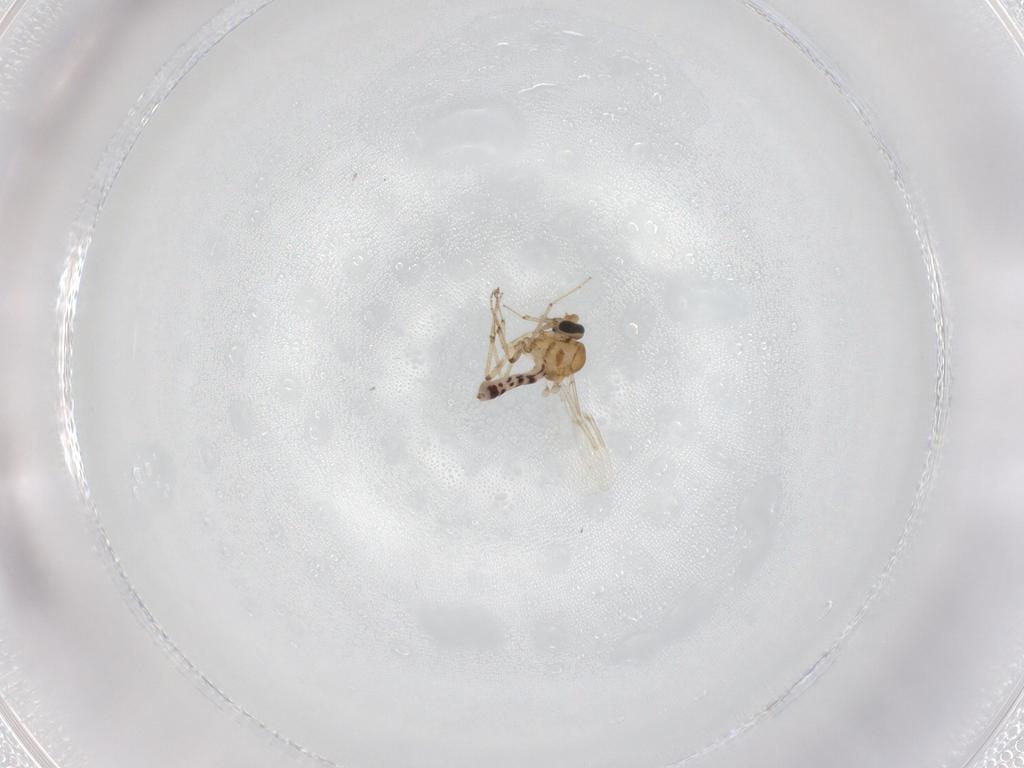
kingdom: Animalia
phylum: Arthropoda
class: Insecta
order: Diptera
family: Ceratopogonidae
